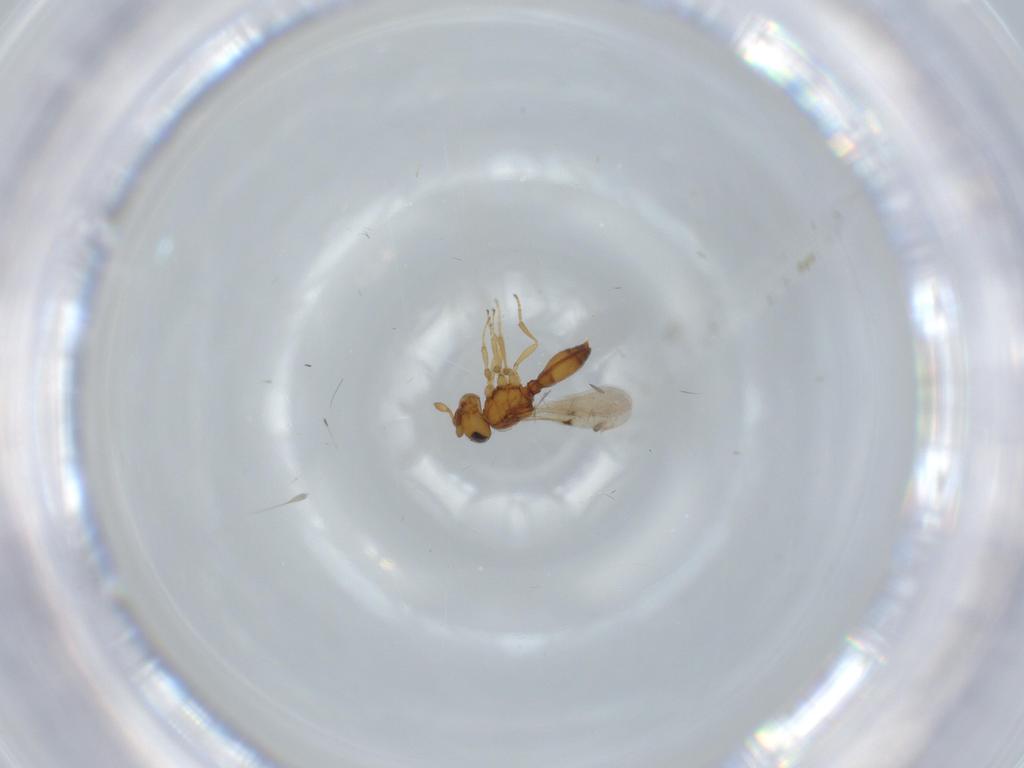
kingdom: Animalia
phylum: Arthropoda
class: Insecta
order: Hymenoptera
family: Scelionidae
